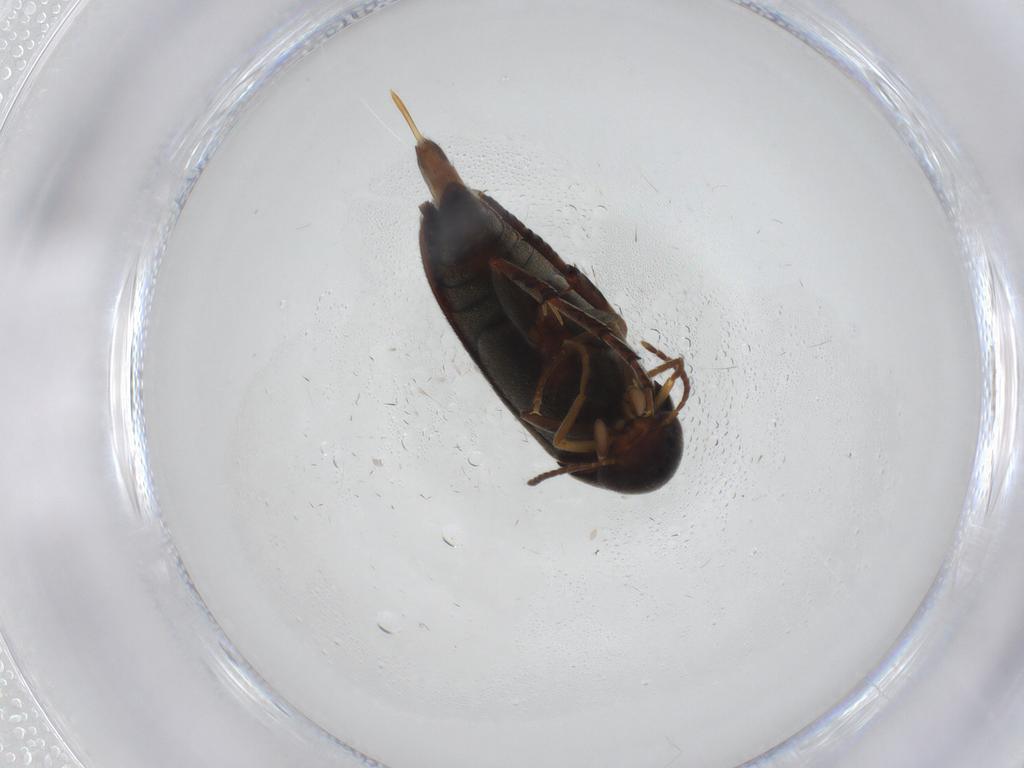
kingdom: Animalia
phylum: Arthropoda
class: Insecta
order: Coleoptera
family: Mordellidae
